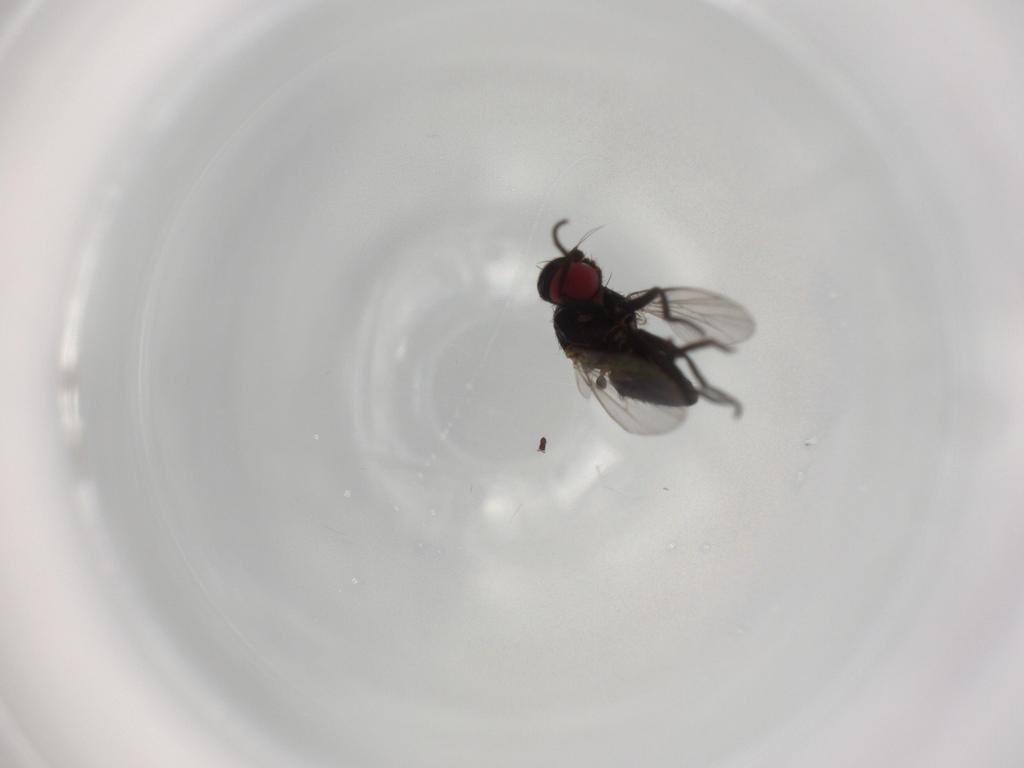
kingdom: Animalia
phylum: Arthropoda
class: Insecta
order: Diptera
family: Agromyzidae
